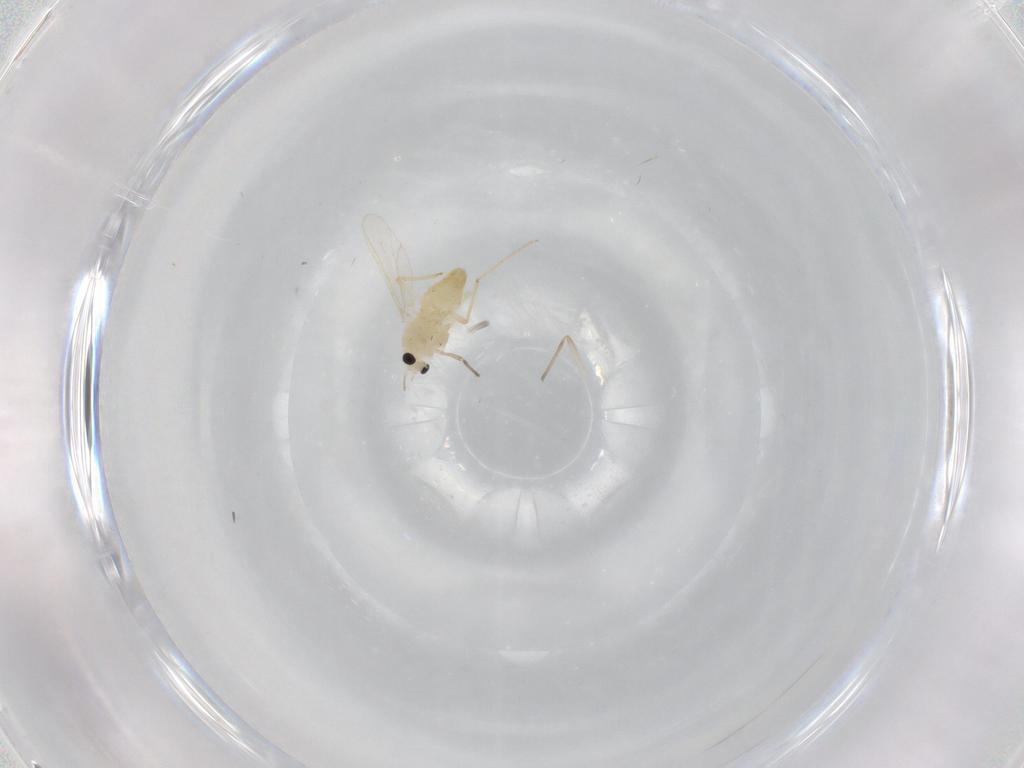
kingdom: Animalia
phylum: Arthropoda
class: Insecta
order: Diptera
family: Chironomidae
